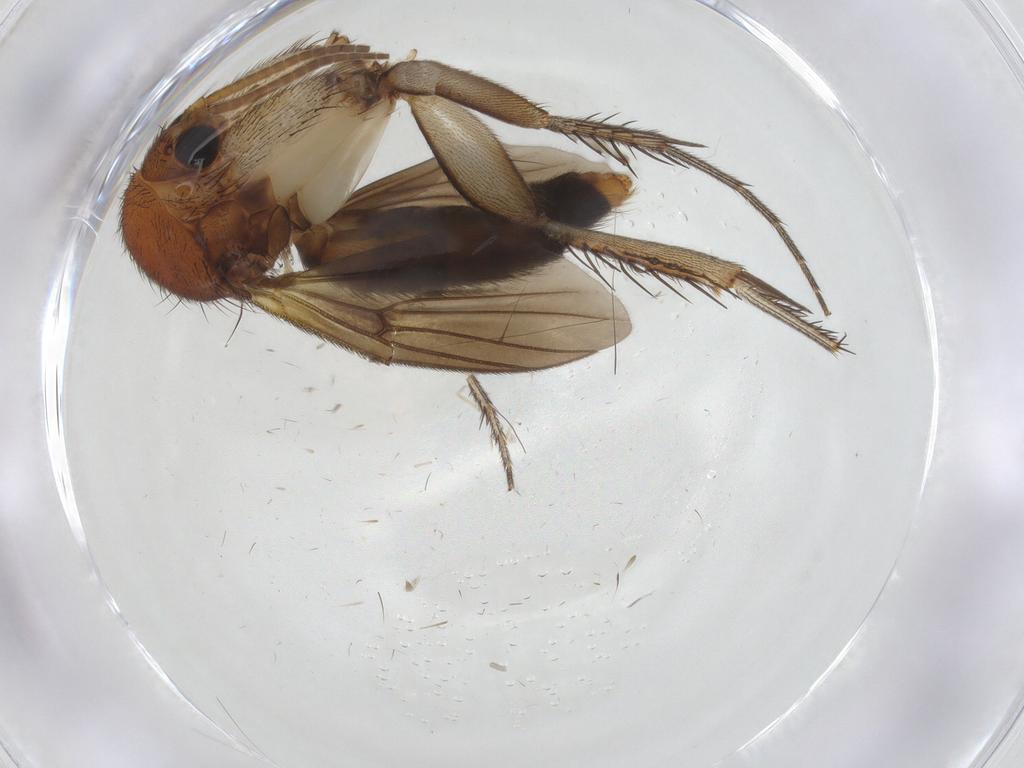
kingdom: Animalia
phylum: Arthropoda
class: Insecta
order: Diptera
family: Cecidomyiidae
